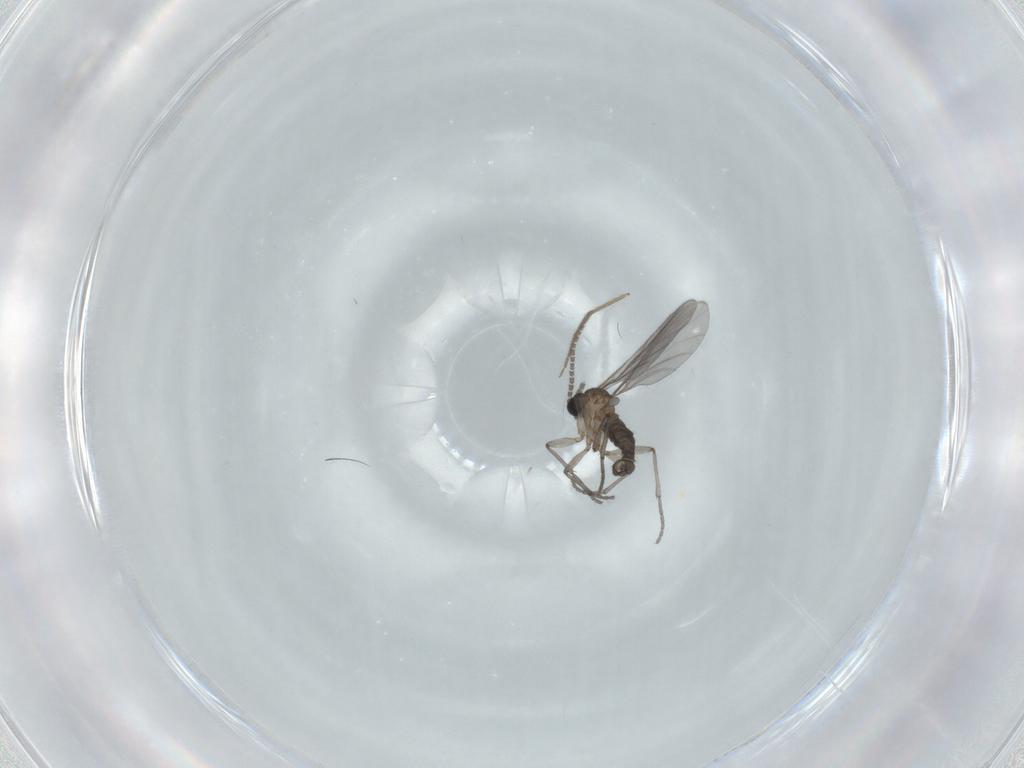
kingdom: Animalia
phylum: Arthropoda
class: Insecta
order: Diptera
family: Sciaridae
